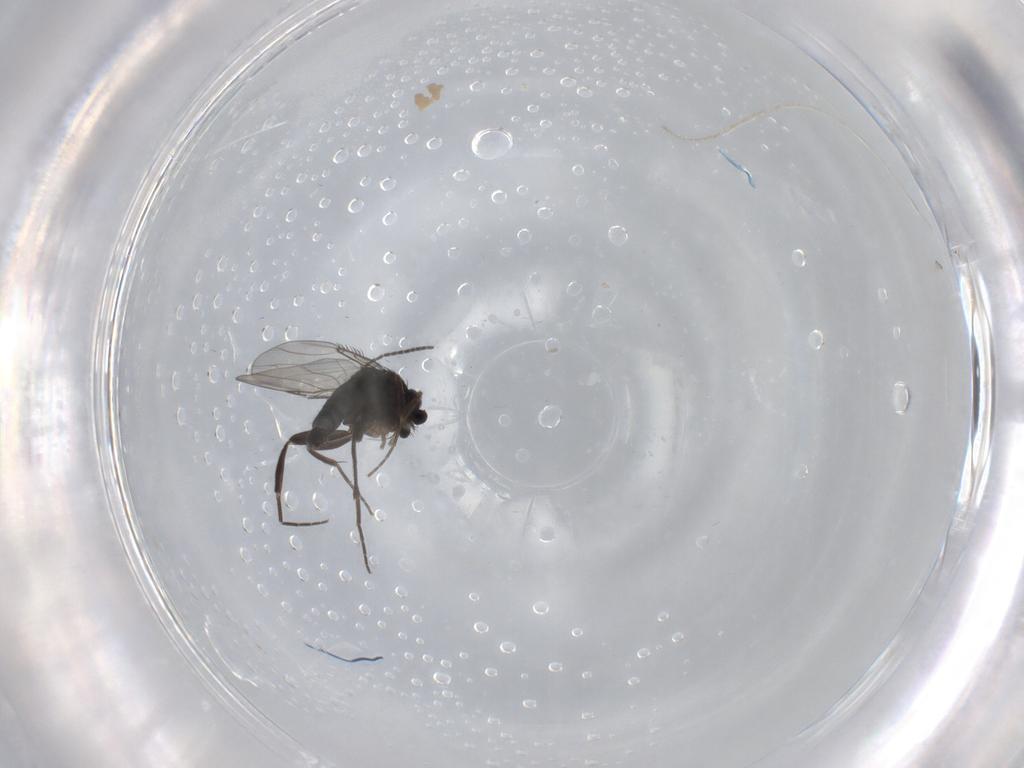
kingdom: Animalia
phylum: Arthropoda
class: Insecta
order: Diptera
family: Phoridae
